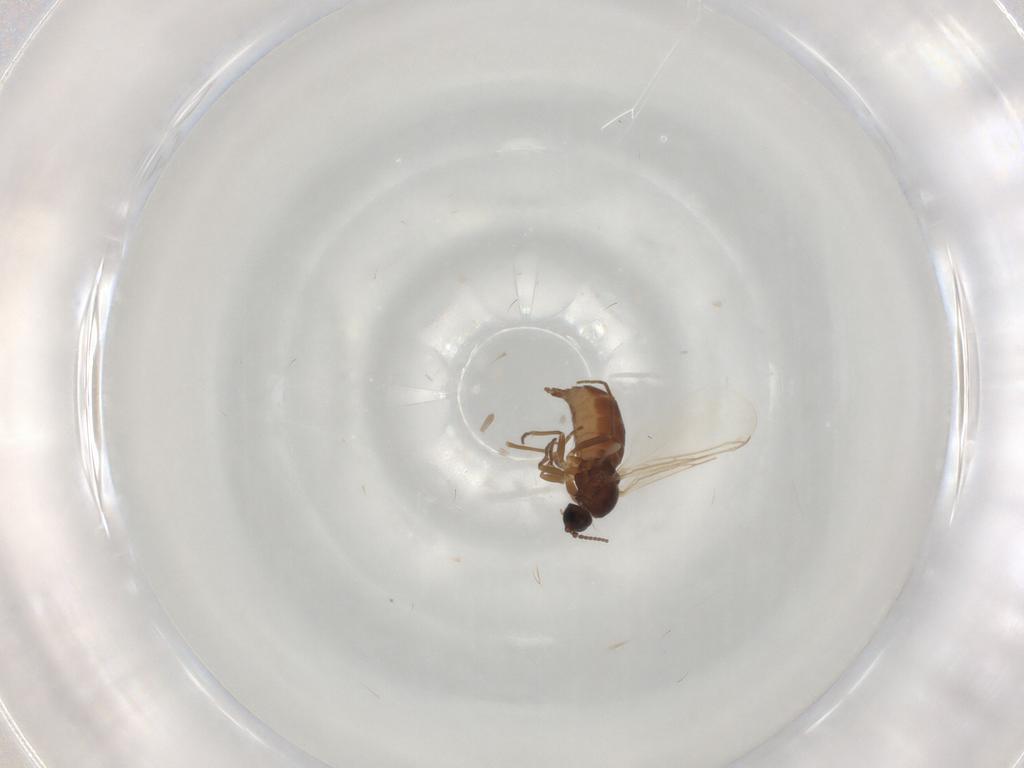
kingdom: Animalia
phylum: Arthropoda
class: Insecta
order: Diptera
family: Sciaridae
